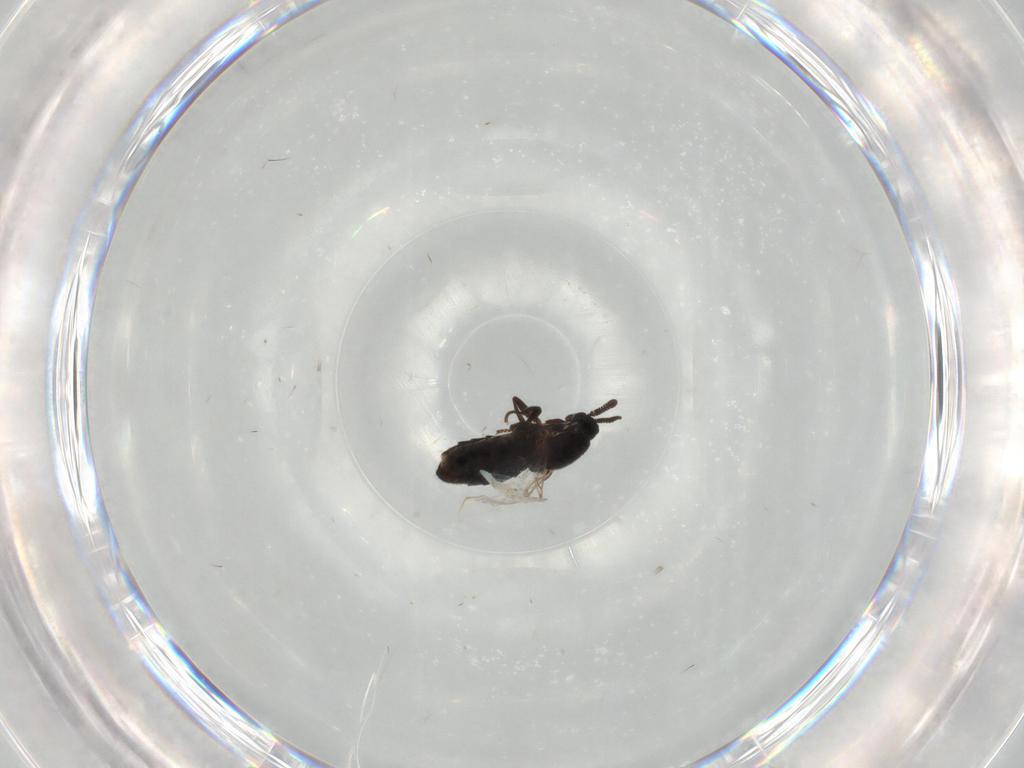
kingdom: Animalia
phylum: Arthropoda
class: Insecta
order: Diptera
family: Scatopsidae
